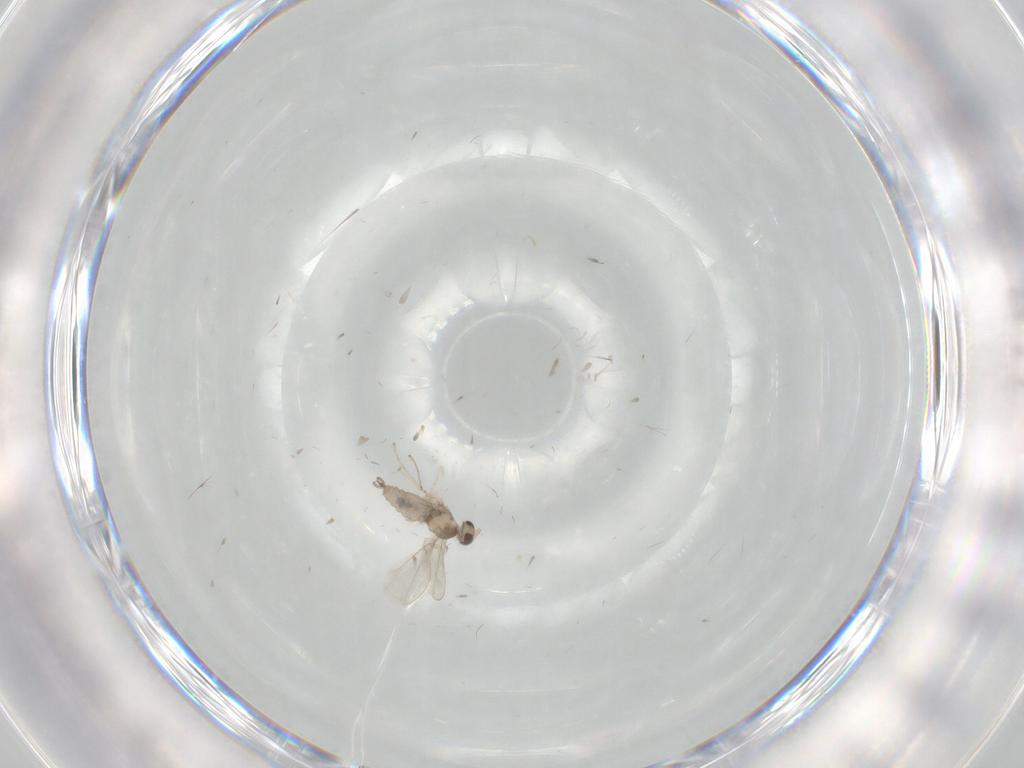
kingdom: Animalia
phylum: Arthropoda
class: Insecta
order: Diptera
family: Cecidomyiidae
